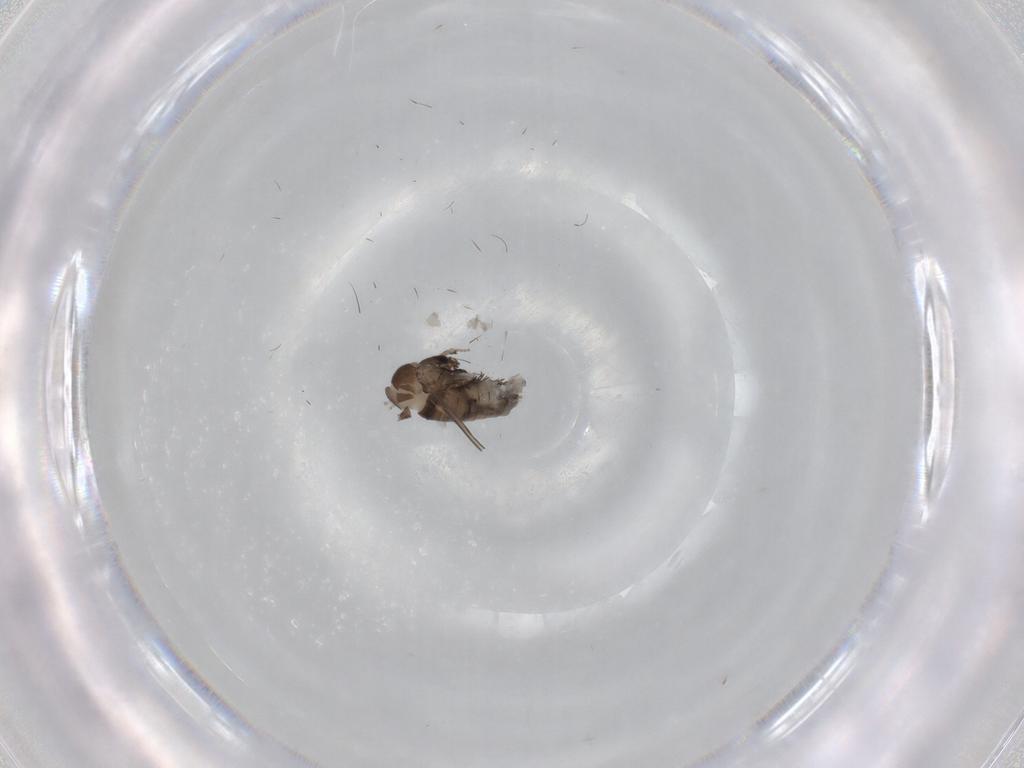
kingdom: Animalia
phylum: Arthropoda
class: Insecta
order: Diptera
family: Psychodidae
